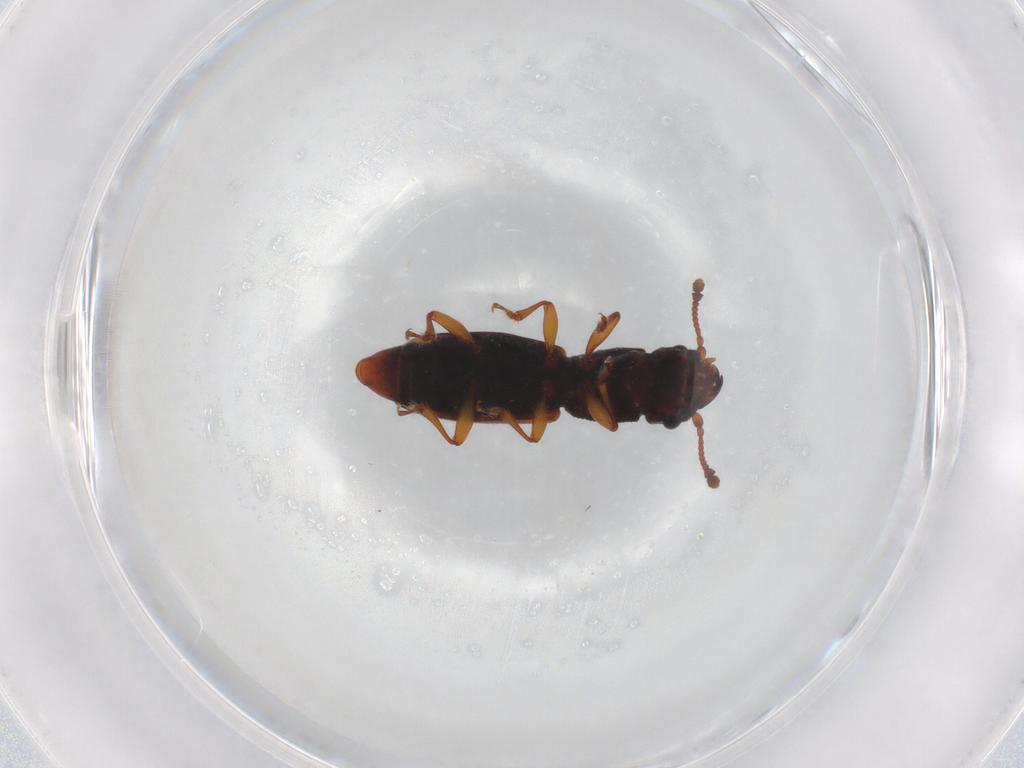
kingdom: Animalia
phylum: Arthropoda
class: Insecta
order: Coleoptera
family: Monotomidae
